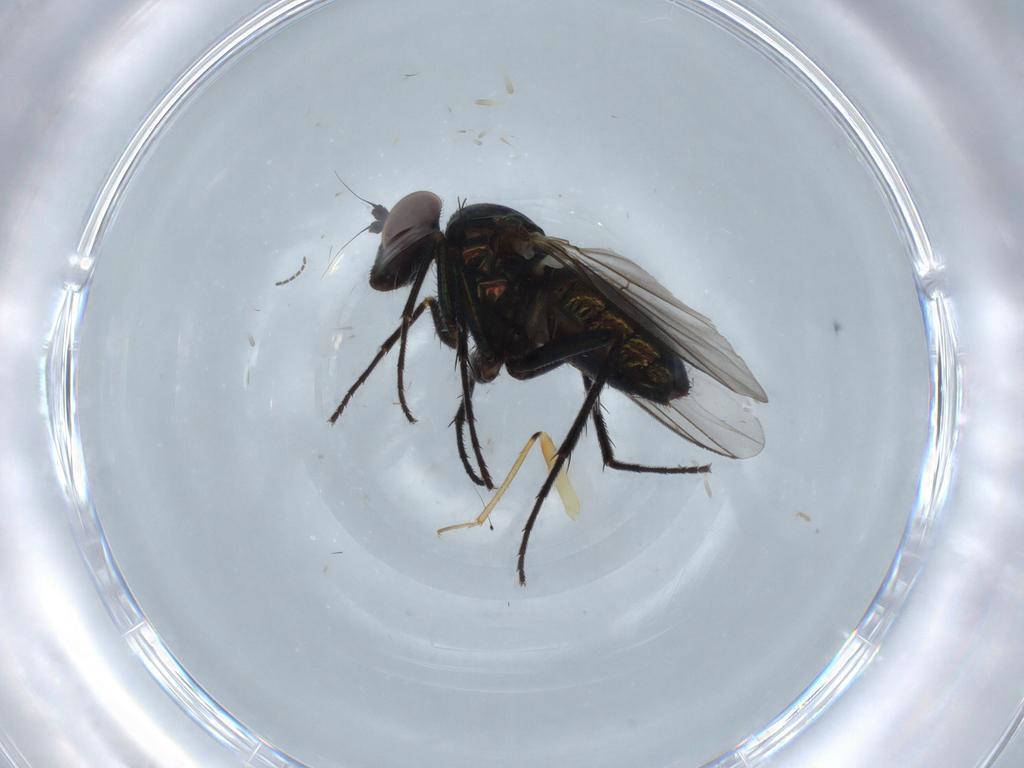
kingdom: Animalia
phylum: Arthropoda
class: Insecta
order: Diptera
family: Dolichopodidae
